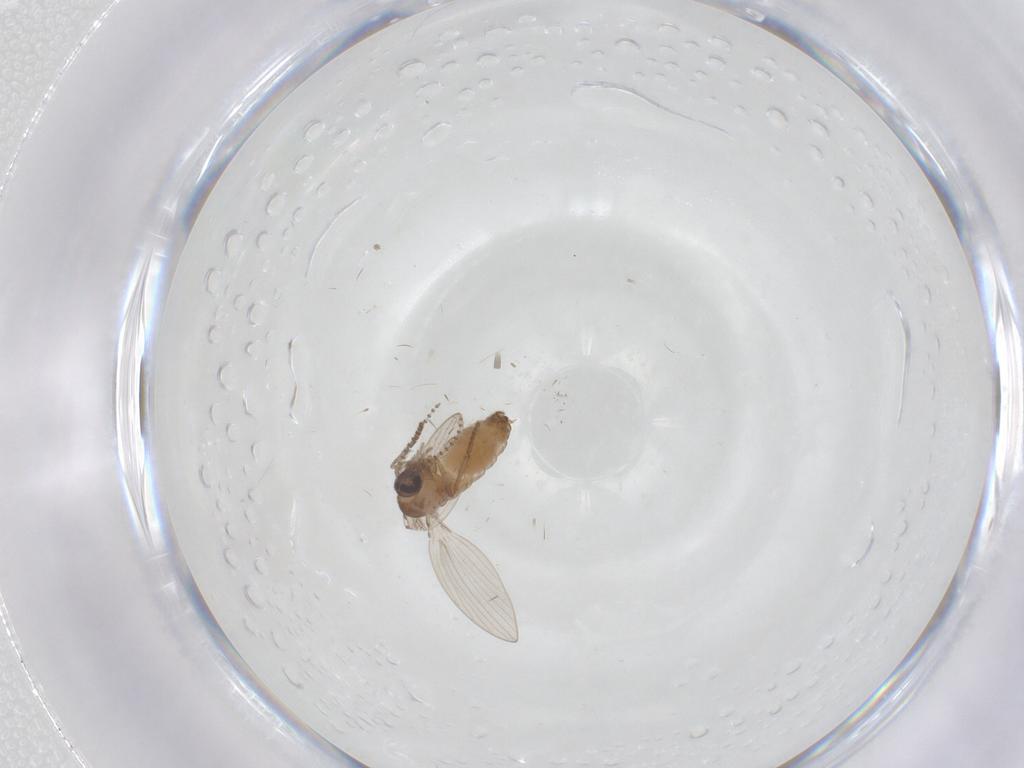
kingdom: Animalia
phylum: Arthropoda
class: Insecta
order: Diptera
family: Psychodidae
